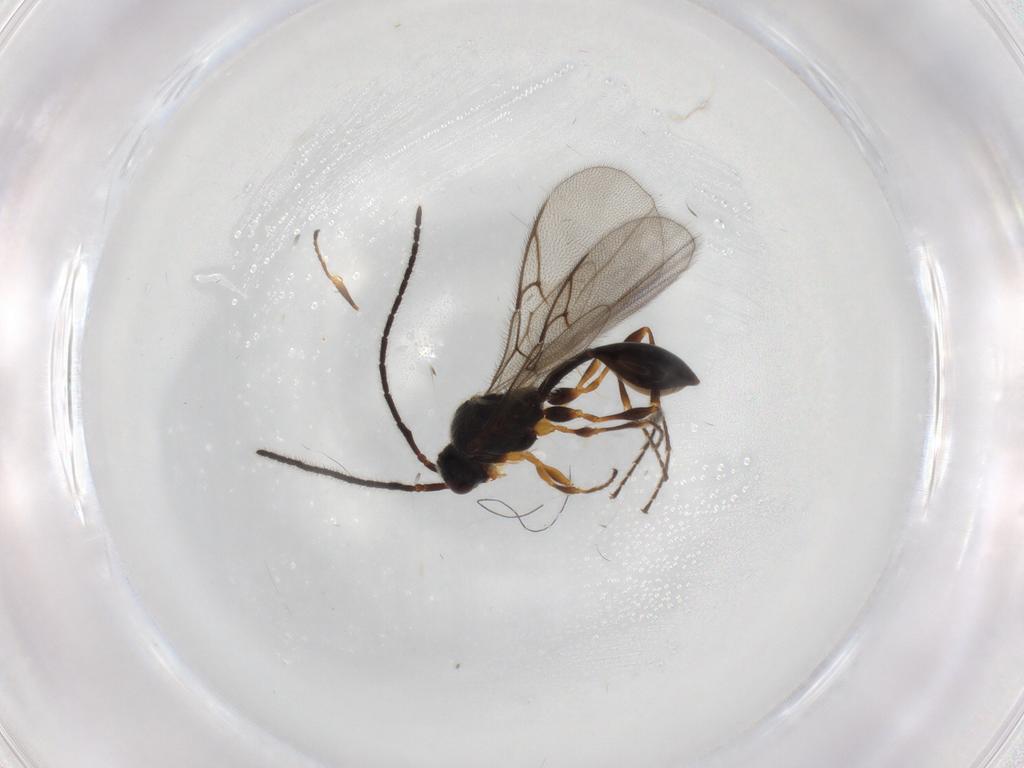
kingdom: Animalia
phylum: Arthropoda
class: Insecta
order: Hymenoptera
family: Diapriidae
